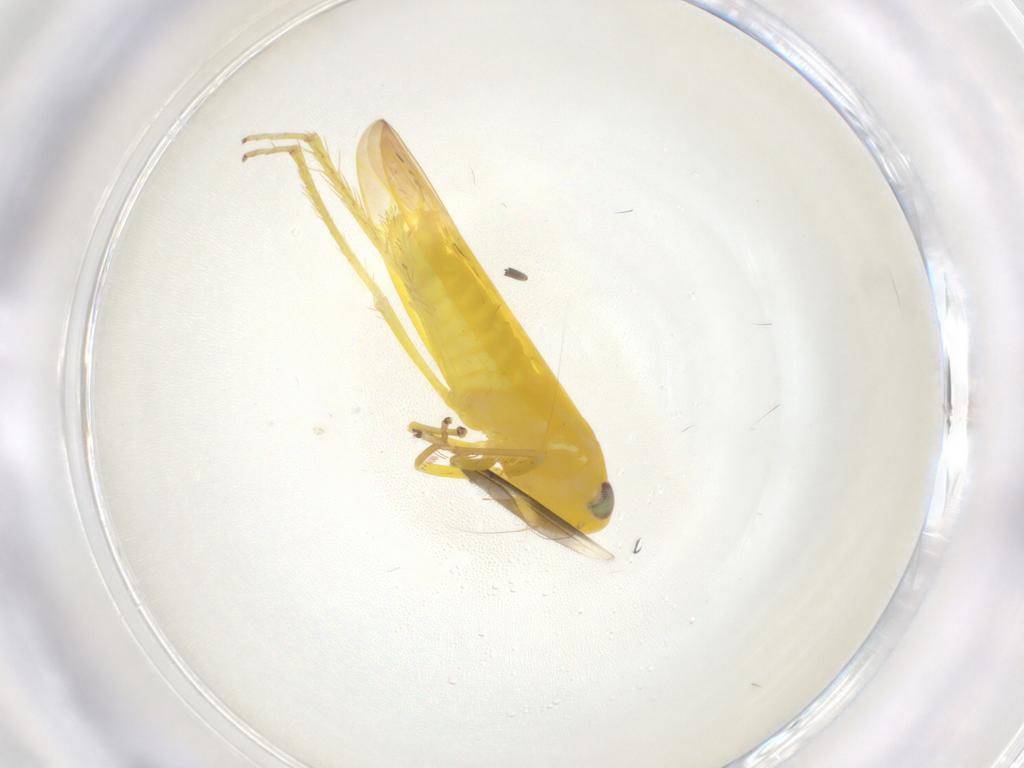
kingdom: Animalia
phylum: Arthropoda
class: Insecta
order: Hemiptera
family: Cicadellidae
